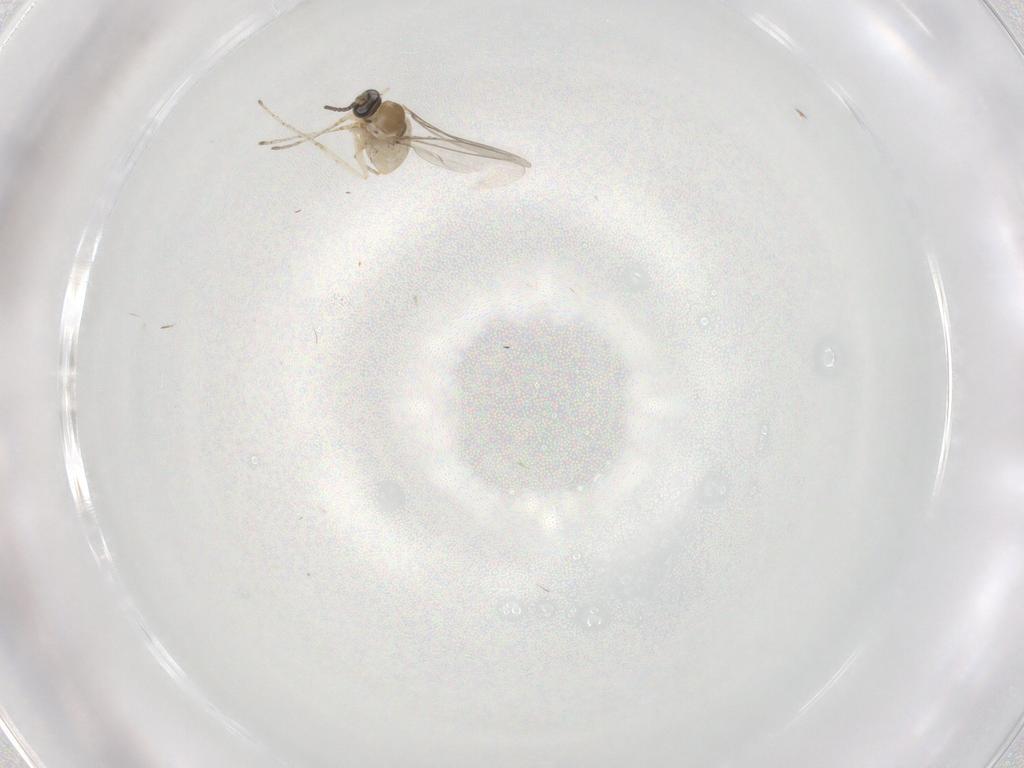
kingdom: Animalia
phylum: Arthropoda
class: Insecta
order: Diptera
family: Cecidomyiidae
